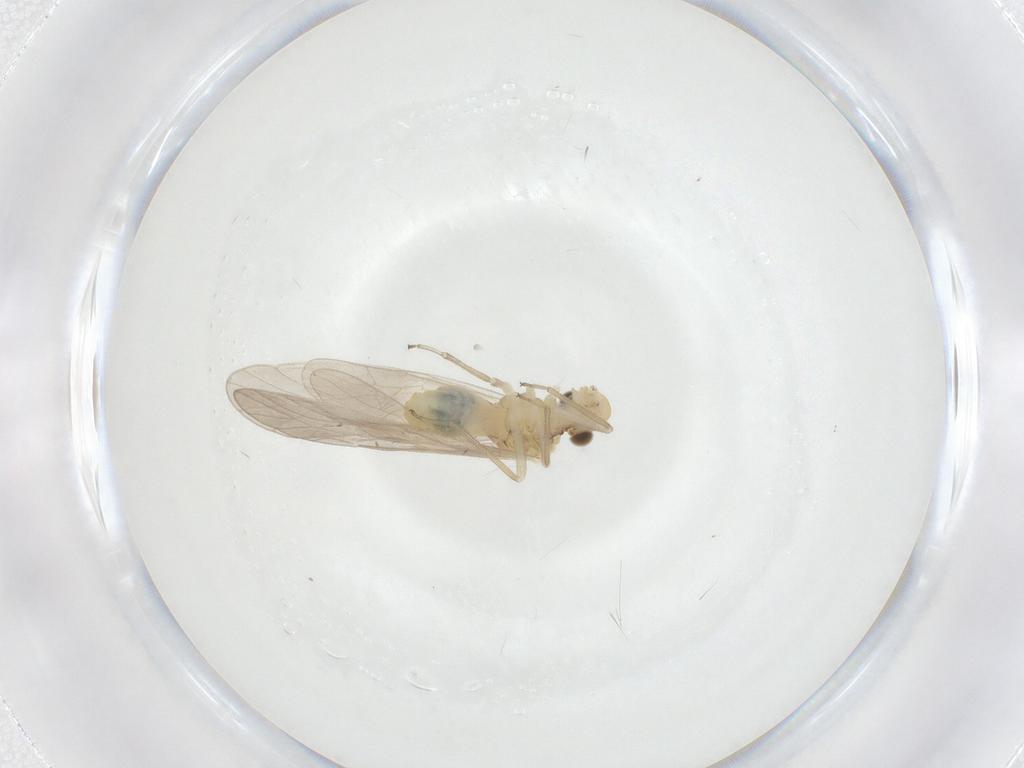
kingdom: Animalia
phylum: Arthropoda
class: Insecta
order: Psocodea
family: Caeciliusidae
